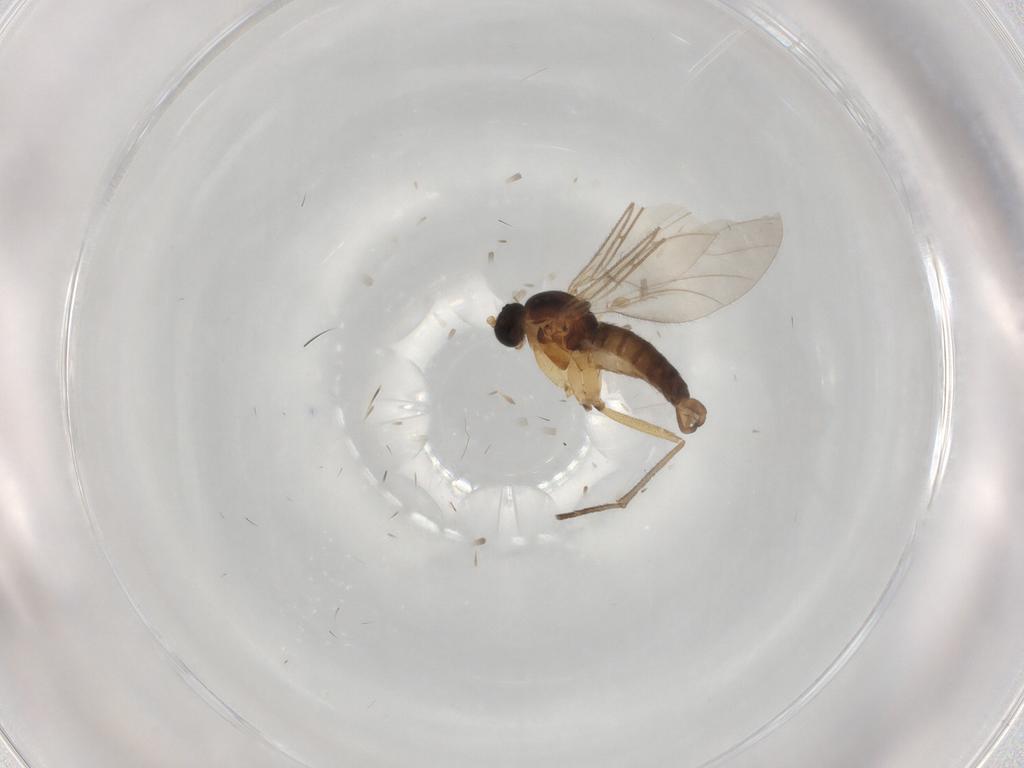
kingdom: Animalia
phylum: Arthropoda
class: Insecta
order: Diptera
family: Sciaridae
